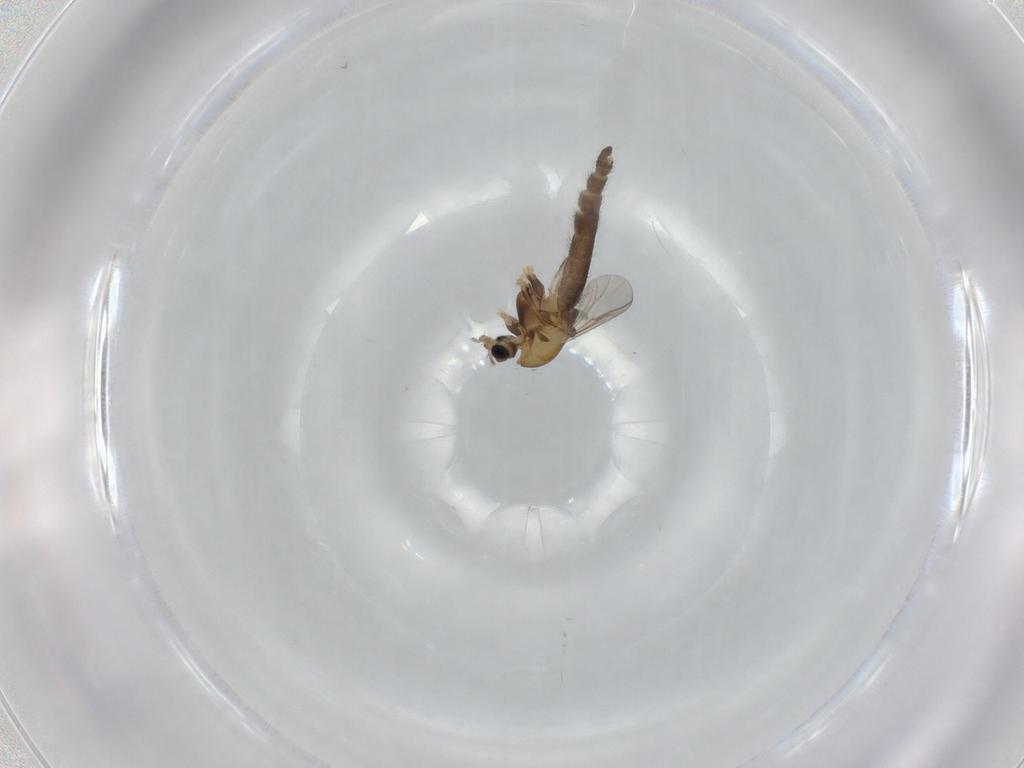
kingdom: Animalia
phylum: Arthropoda
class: Insecta
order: Diptera
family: Chironomidae
